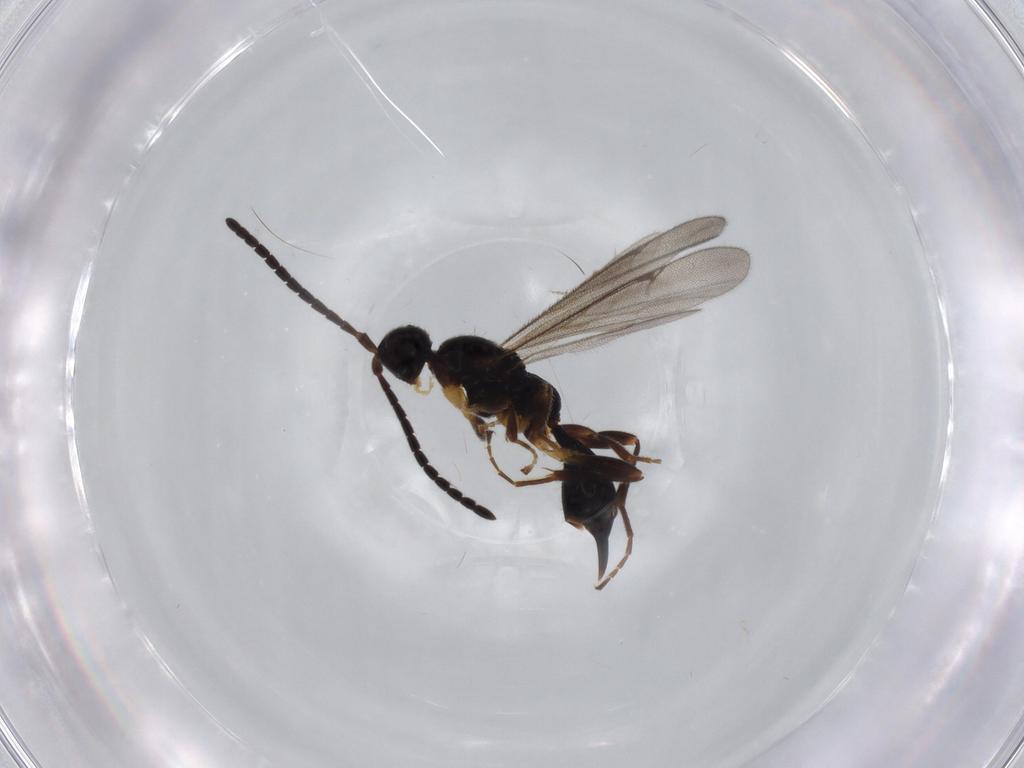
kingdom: Animalia
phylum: Arthropoda
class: Insecta
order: Hymenoptera
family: Proctotrupidae
